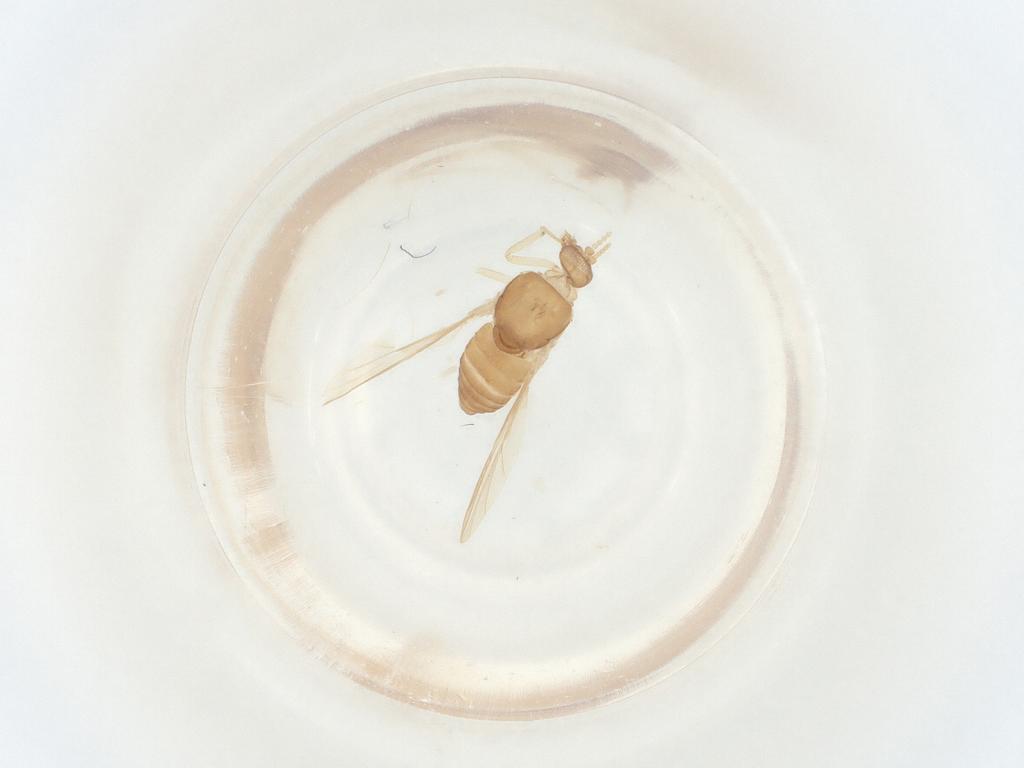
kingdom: Animalia
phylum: Arthropoda
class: Insecta
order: Diptera
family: Ceratopogonidae
